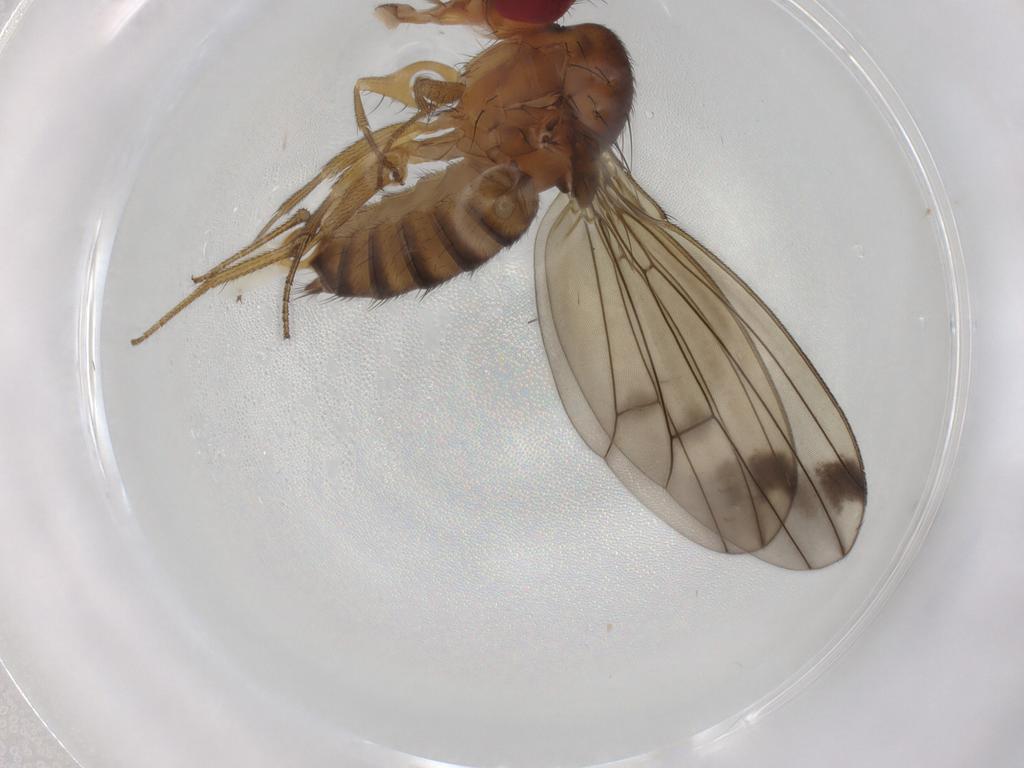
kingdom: Animalia
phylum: Arthropoda
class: Insecta
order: Diptera
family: Drosophilidae
